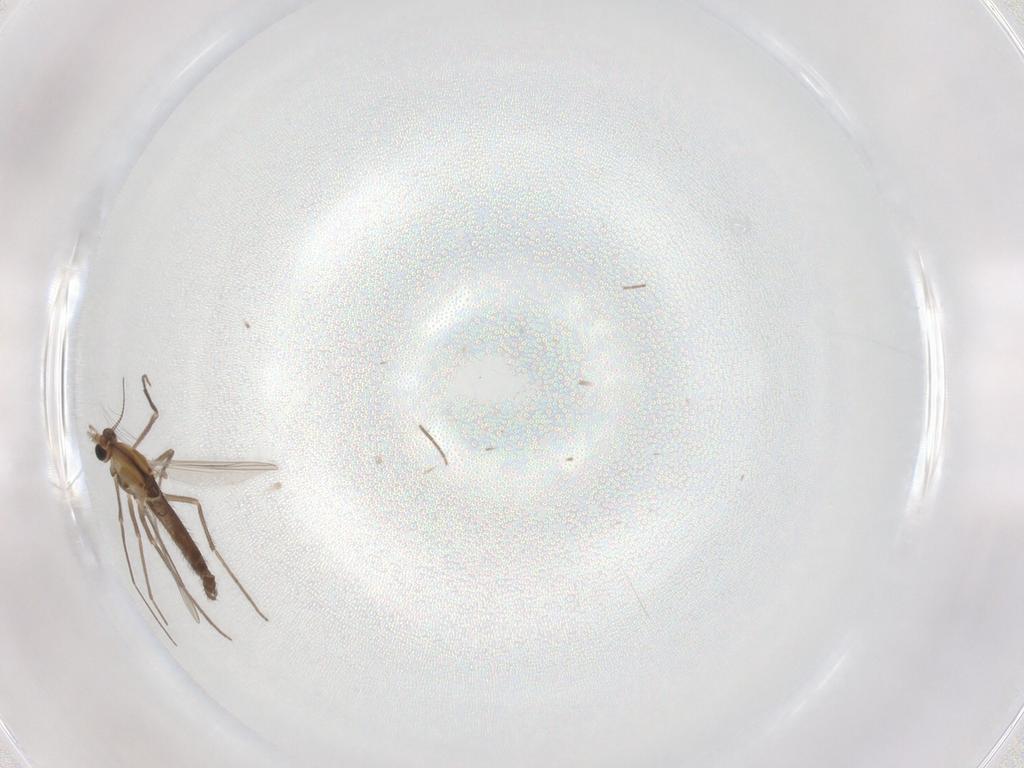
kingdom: Animalia
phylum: Arthropoda
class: Insecta
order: Diptera
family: Chironomidae
